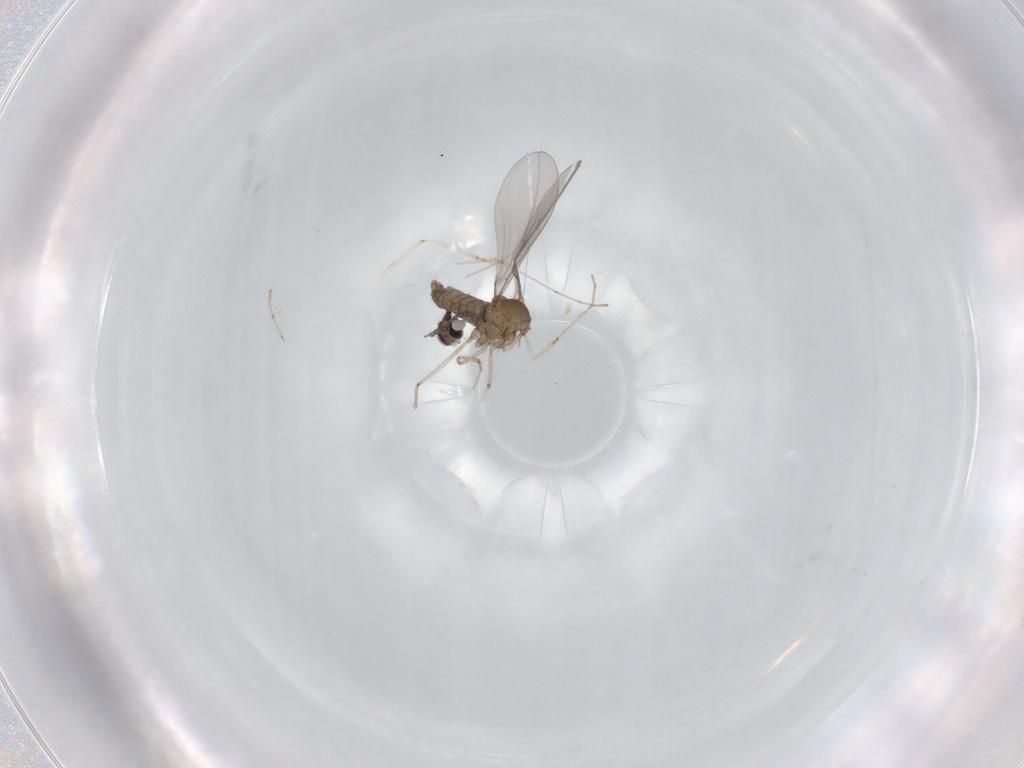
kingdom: Animalia
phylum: Arthropoda
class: Insecta
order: Diptera
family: Cecidomyiidae
